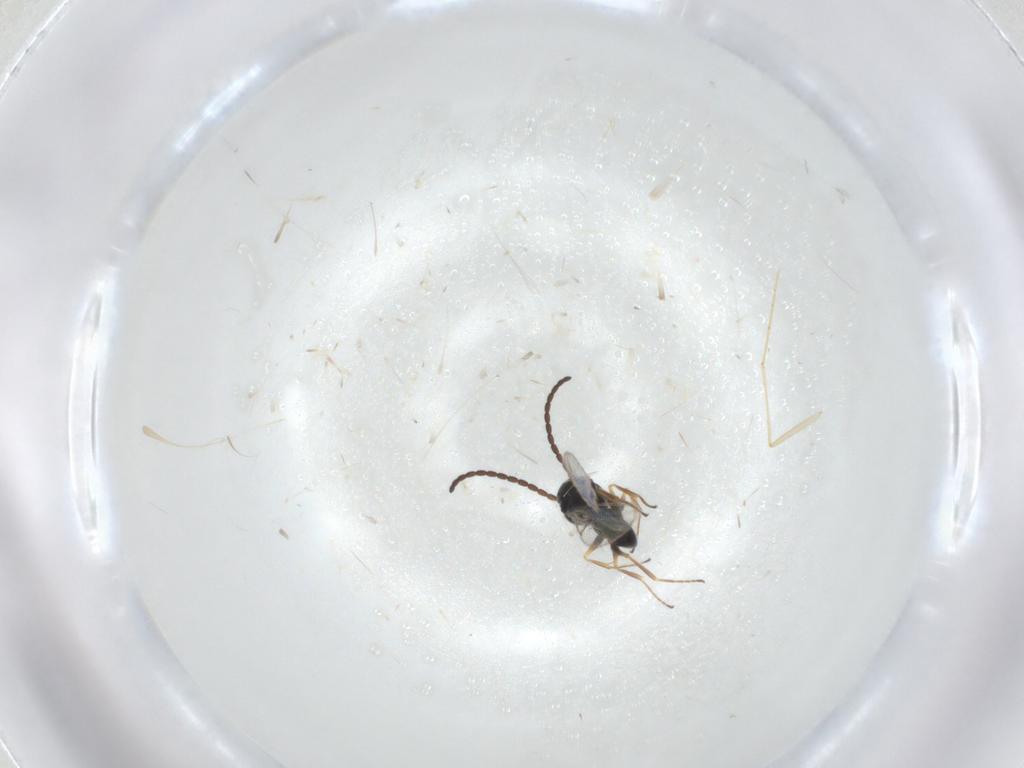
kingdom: Animalia
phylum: Arthropoda
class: Insecta
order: Hymenoptera
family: Figitidae
